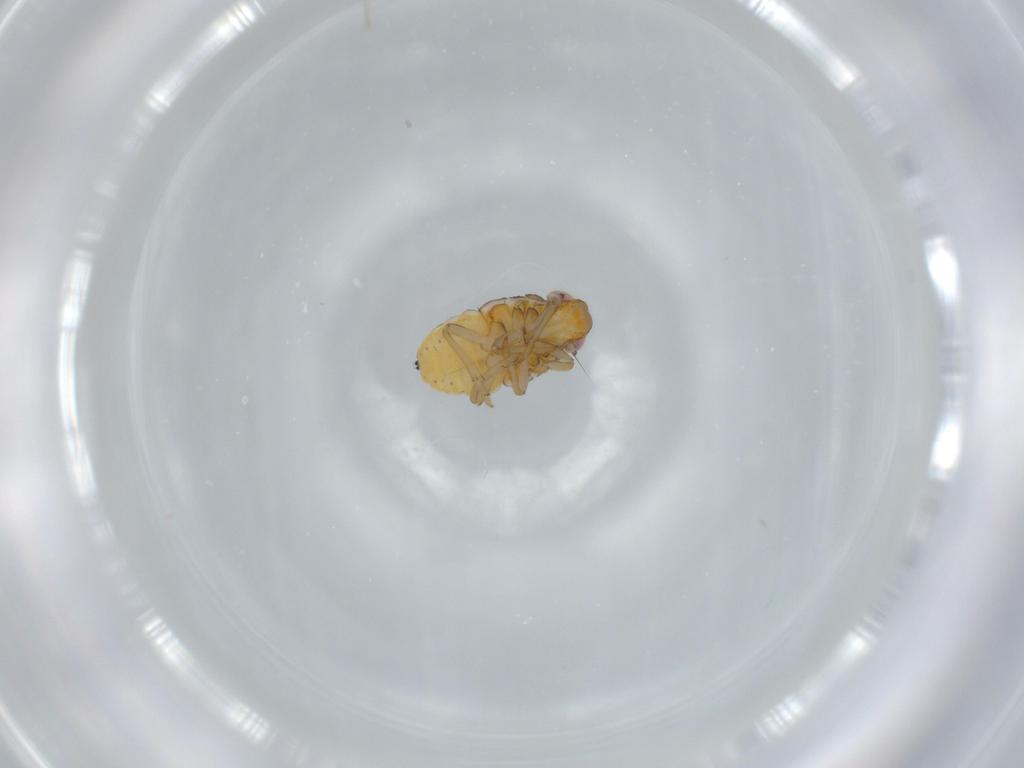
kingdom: Animalia
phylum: Arthropoda
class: Insecta
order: Hemiptera
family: Issidae
